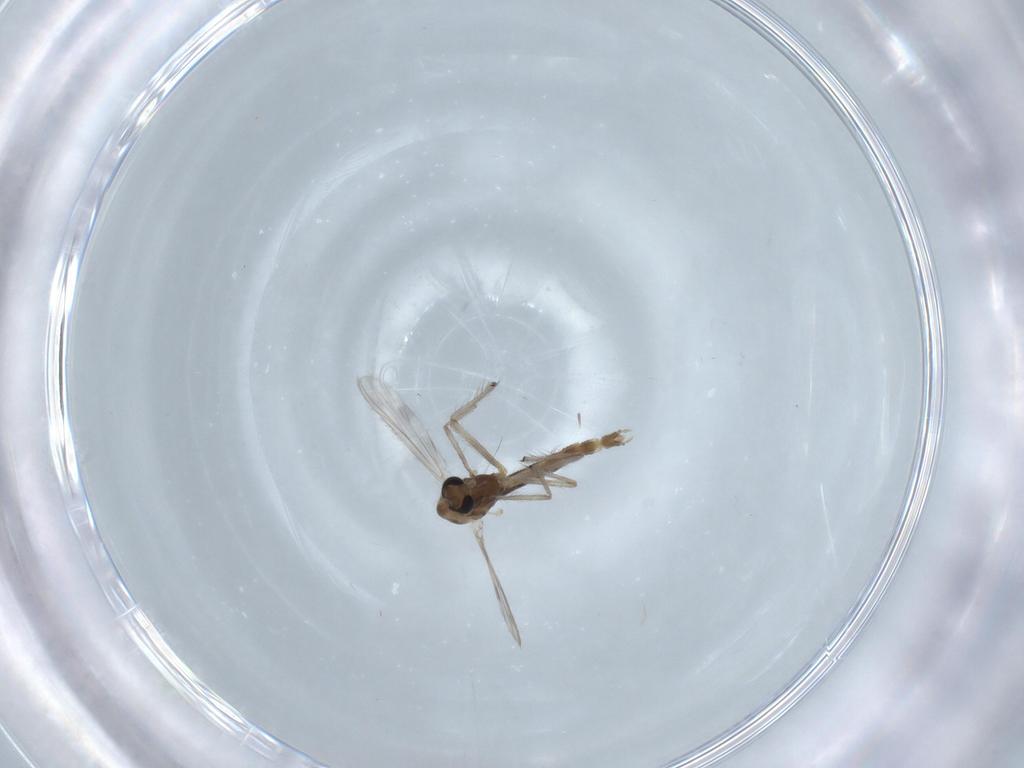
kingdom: Animalia
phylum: Arthropoda
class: Insecta
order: Diptera
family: Chironomidae
